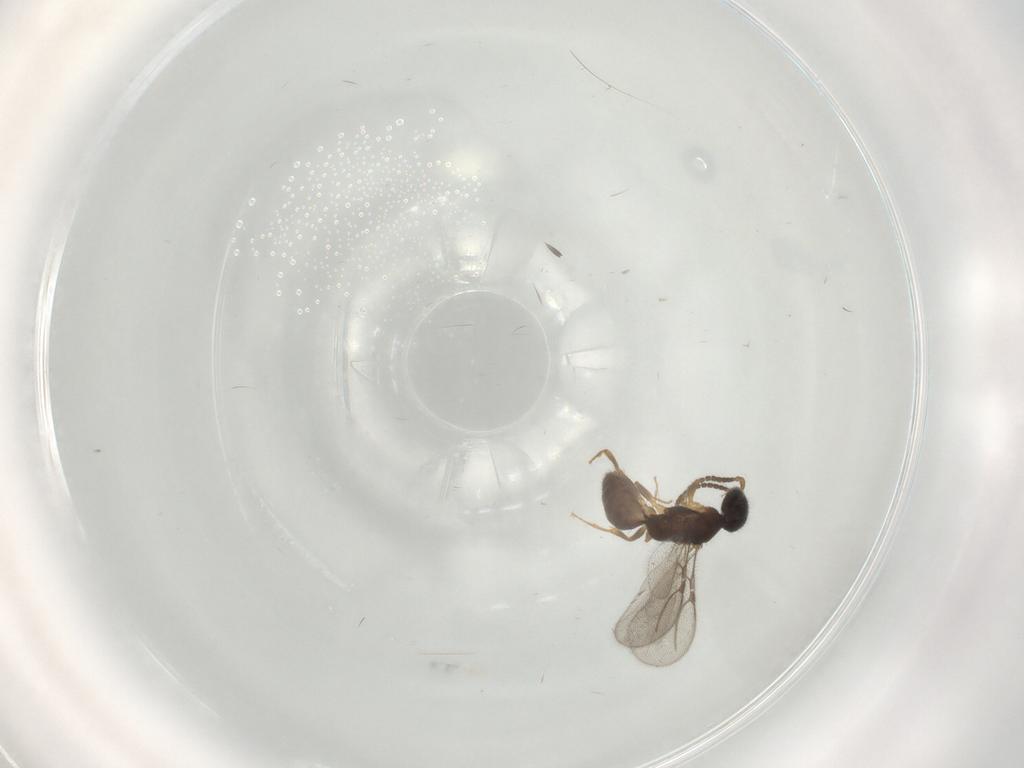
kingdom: Animalia
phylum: Arthropoda
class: Insecta
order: Hymenoptera
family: Bethylidae
